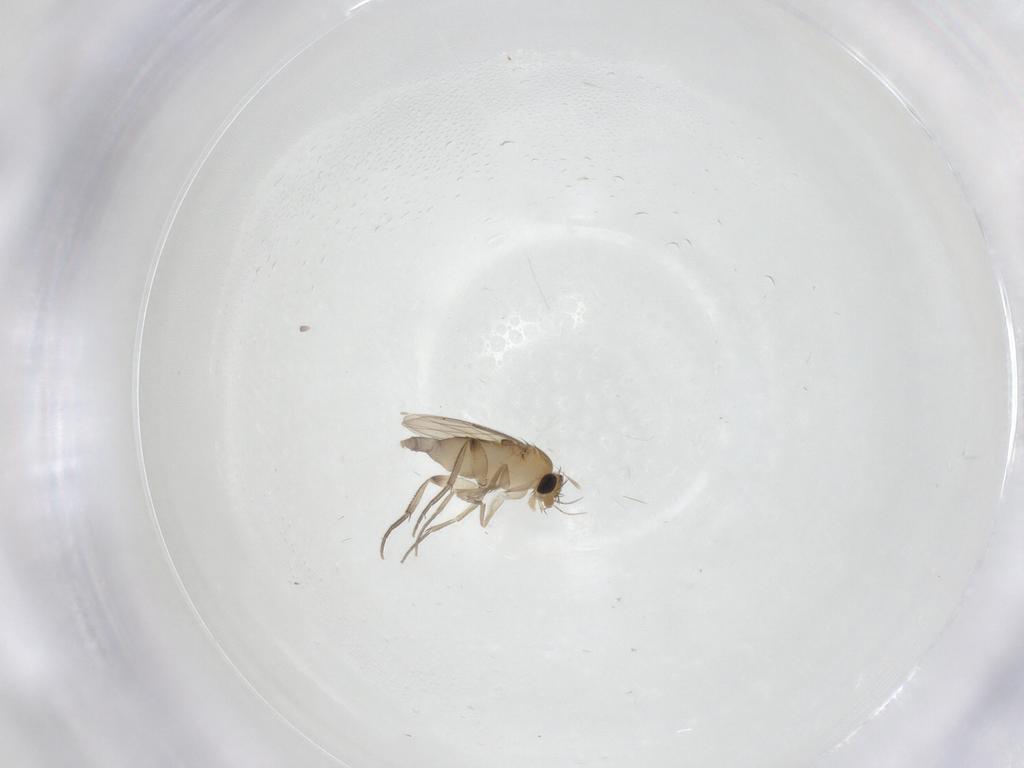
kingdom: Animalia
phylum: Arthropoda
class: Insecta
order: Diptera
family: Phoridae
